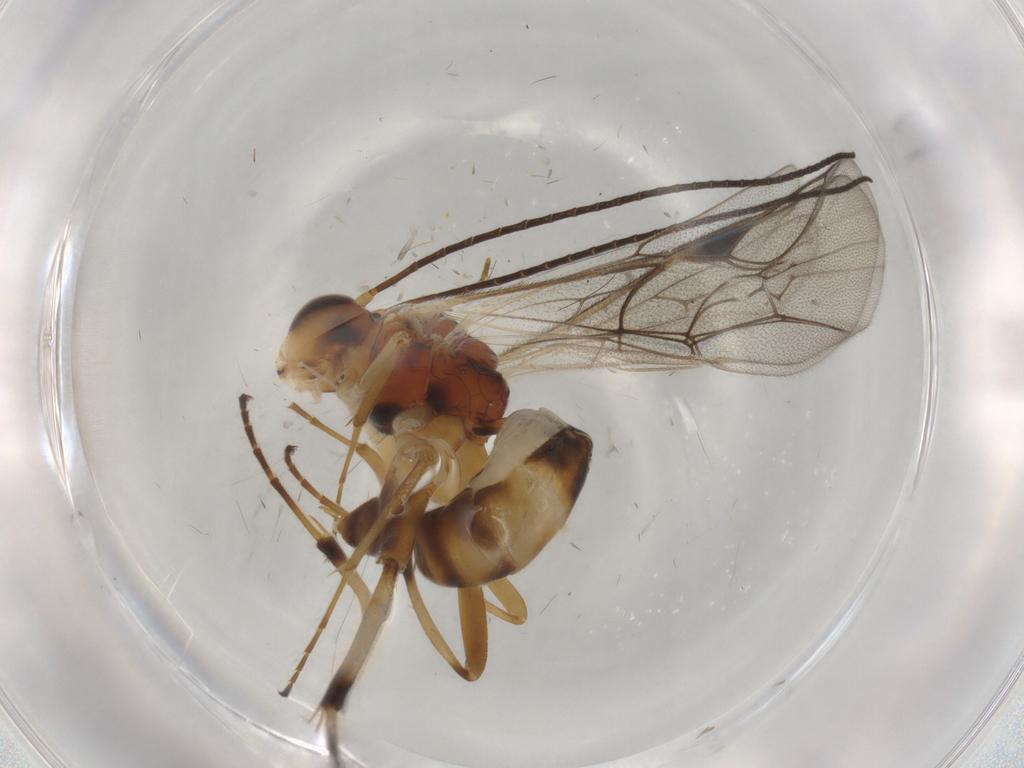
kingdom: Animalia
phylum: Arthropoda
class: Insecta
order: Hymenoptera
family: Ichneumonidae
